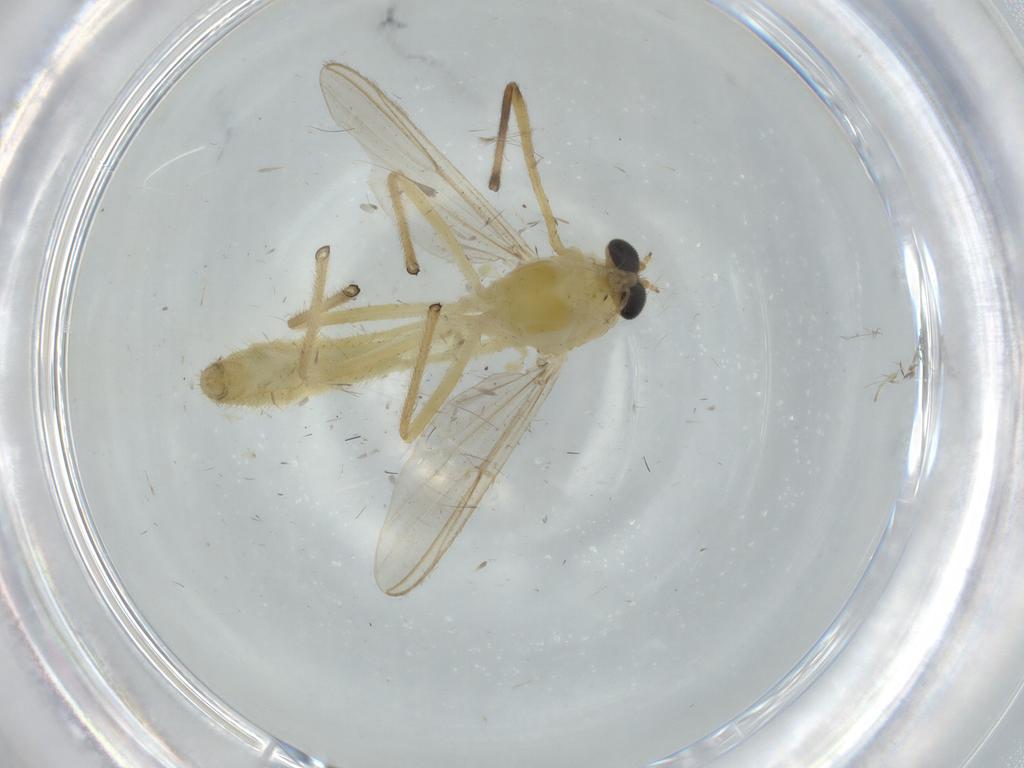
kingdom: Animalia
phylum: Arthropoda
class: Insecta
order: Diptera
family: Chironomidae
